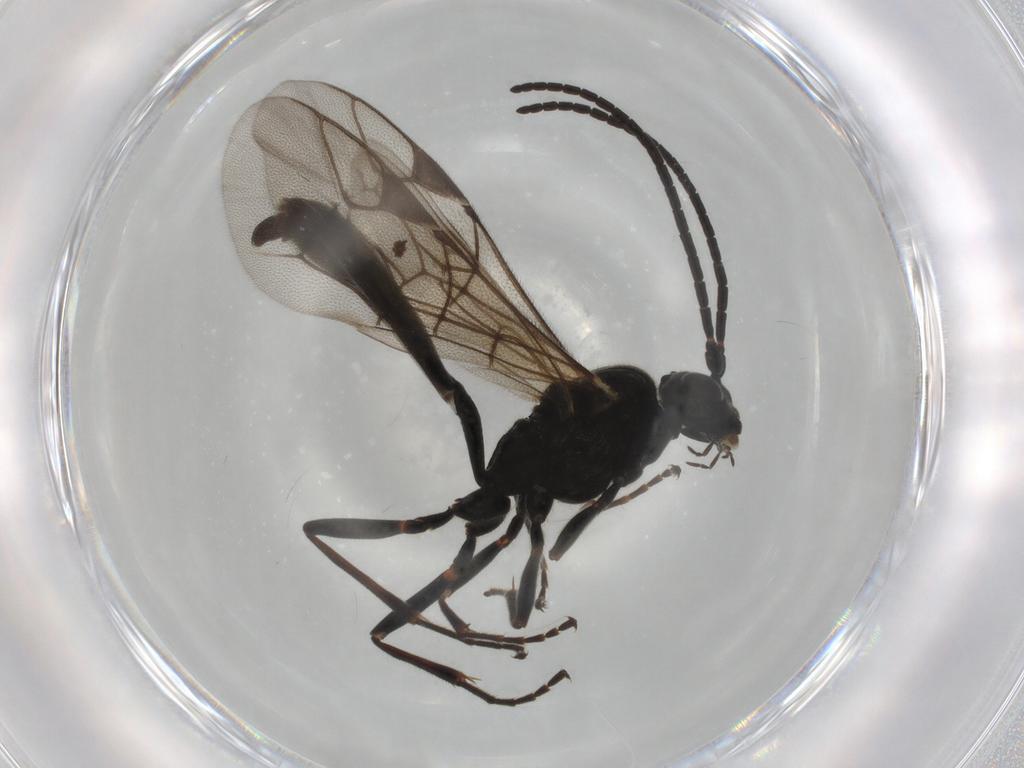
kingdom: Animalia
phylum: Arthropoda
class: Insecta
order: Hymenoptera
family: Ichneumonidae
